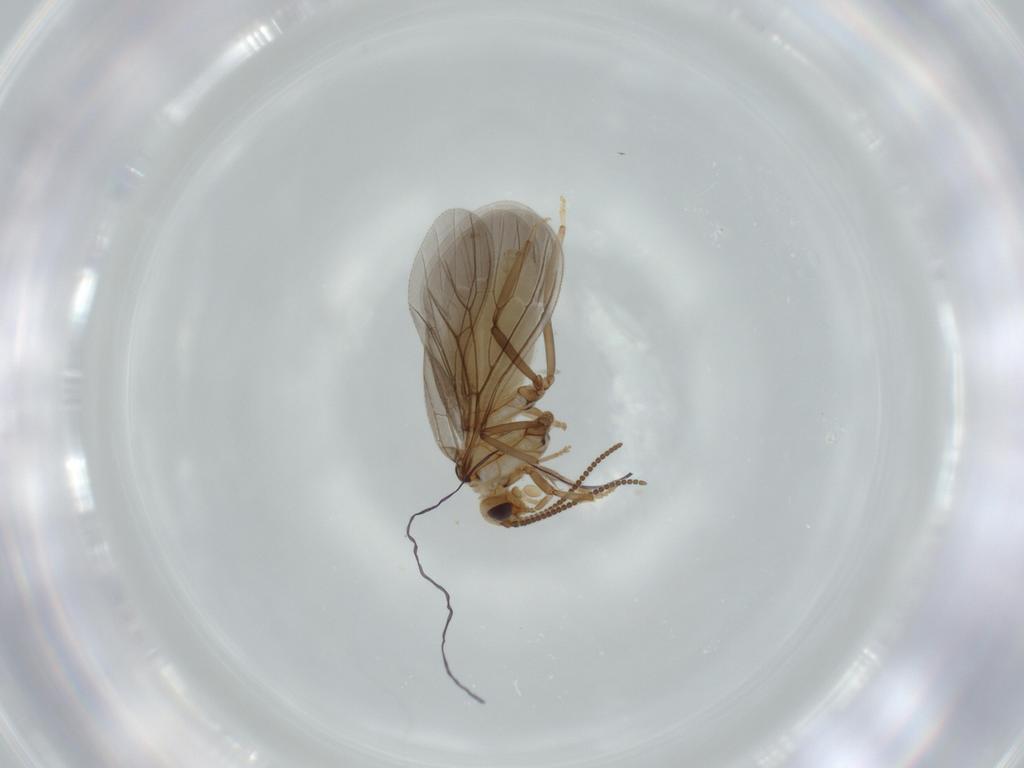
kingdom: Animalia
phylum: Arthropoda
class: Insecta
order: Neuroptera
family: Coniopterygidae
